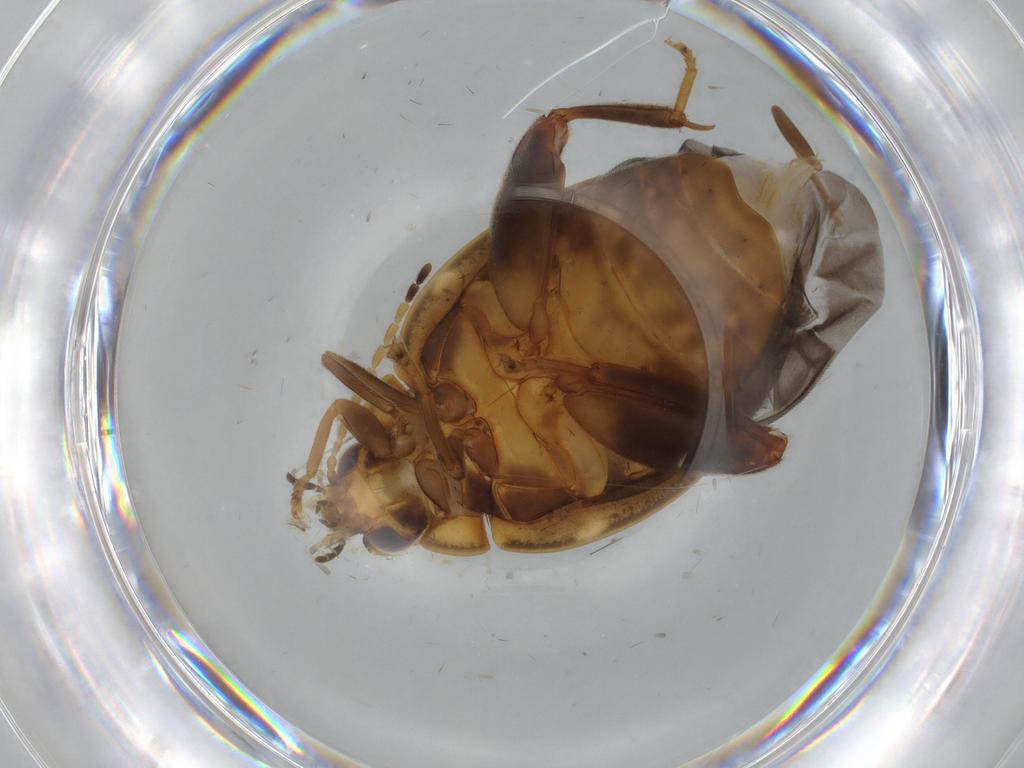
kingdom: Animalia
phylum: Arthropoda
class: Insecta
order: Coleoptera
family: Scirtidae
